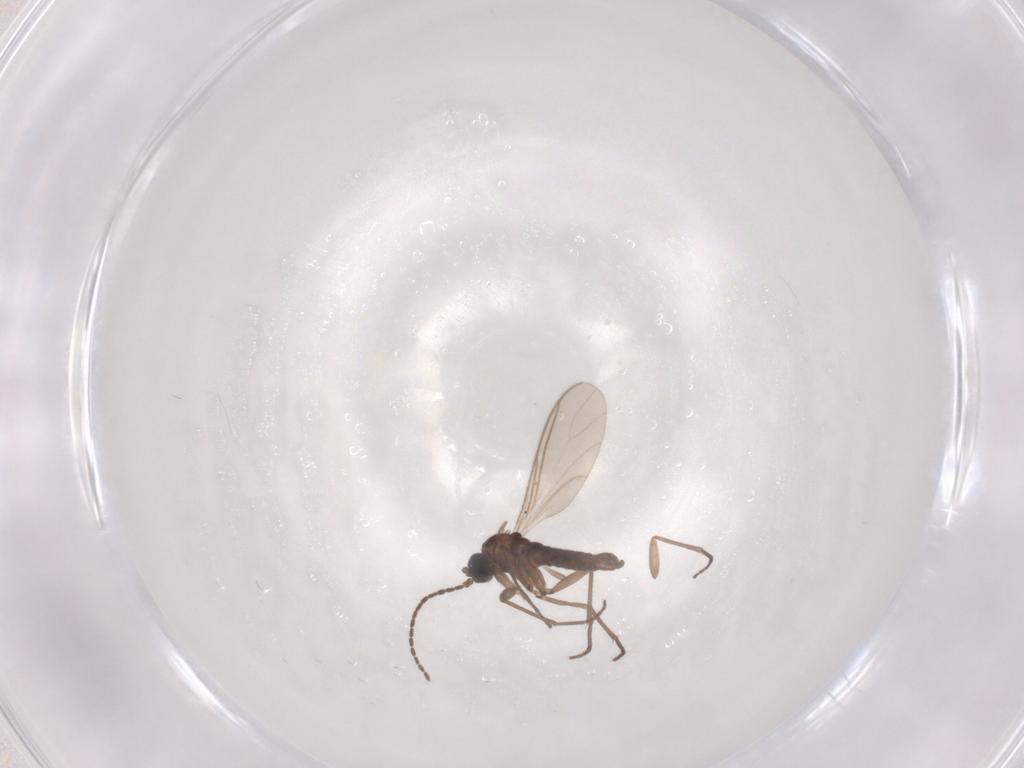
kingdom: Animalia
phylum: Arthropoda
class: Insecta
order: Diptera
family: Sciaridae
